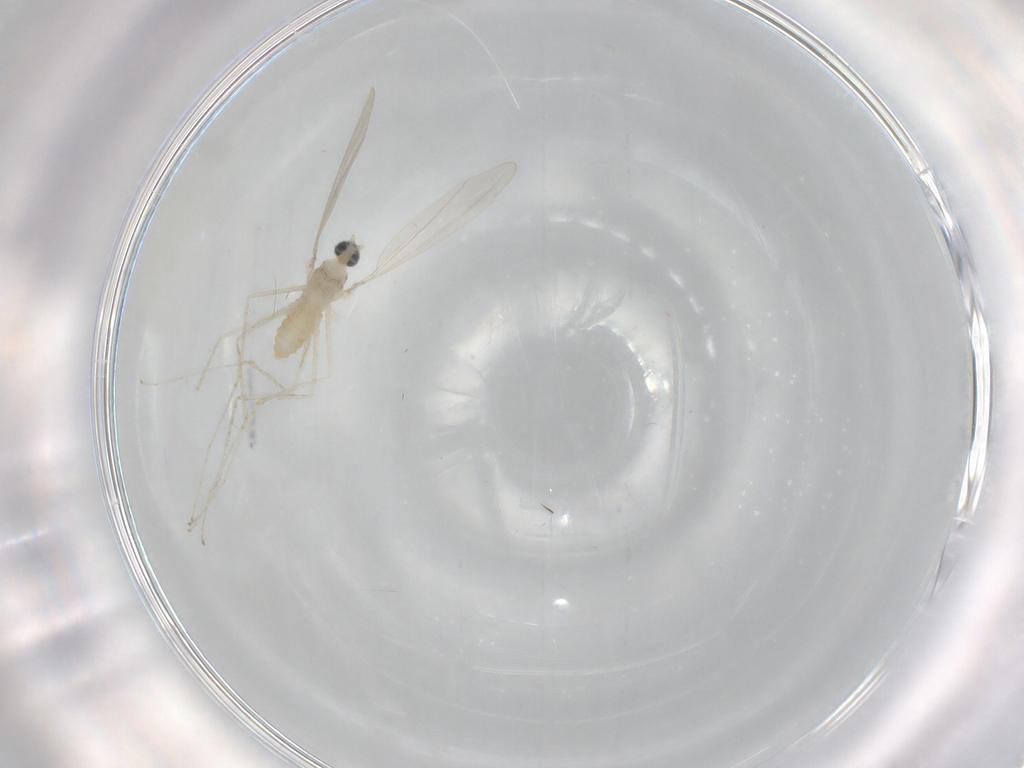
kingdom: Animalia
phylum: Arthropoda
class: Insecta
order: Diptera
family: Cecidomyiidae
